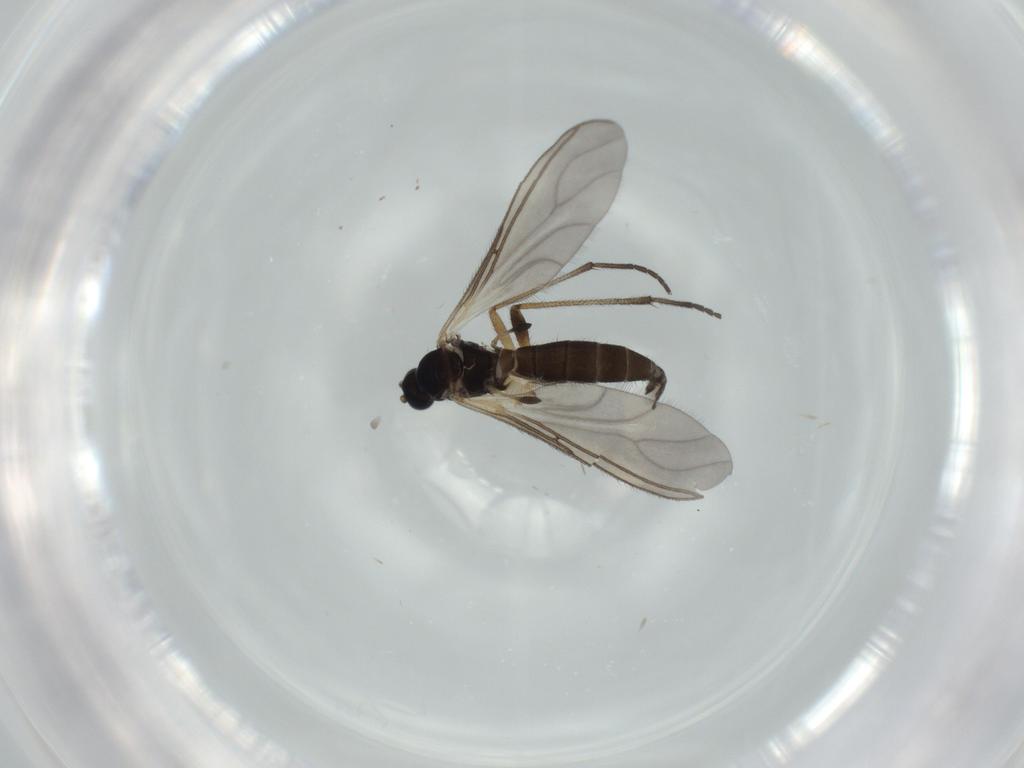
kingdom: Animalia
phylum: Arthropoda
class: Insecta
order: Diptera
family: Sciaridae
